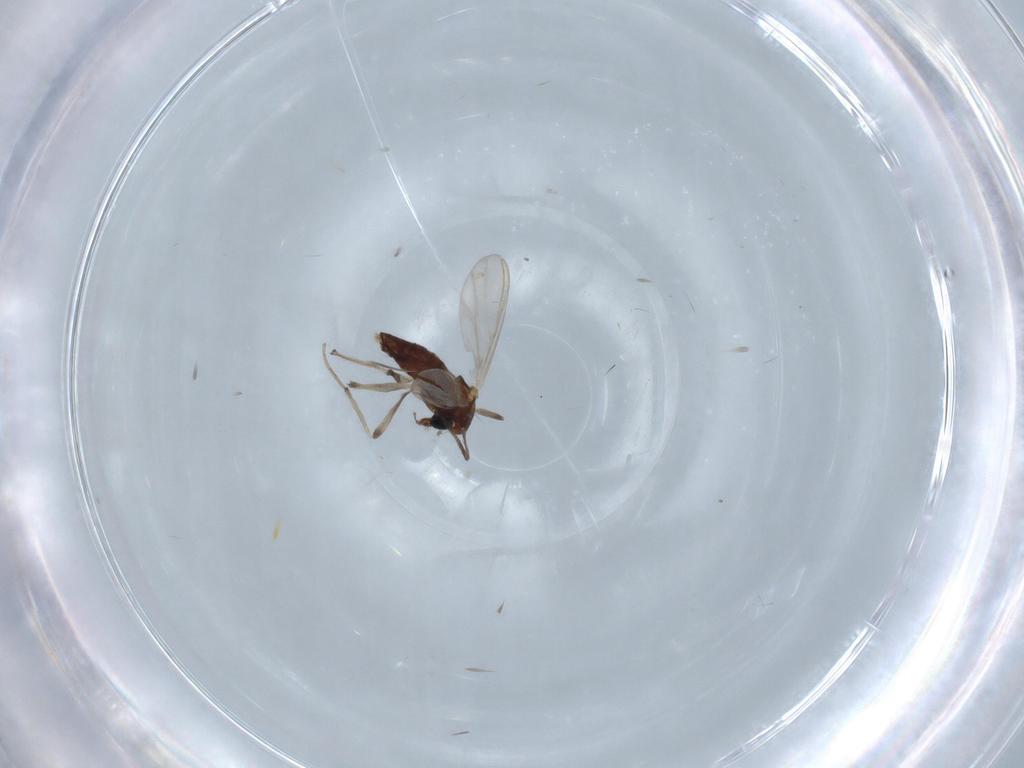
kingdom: Animalia
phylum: Arthropoda
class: Insecta
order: Diptera
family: Chironomidae
